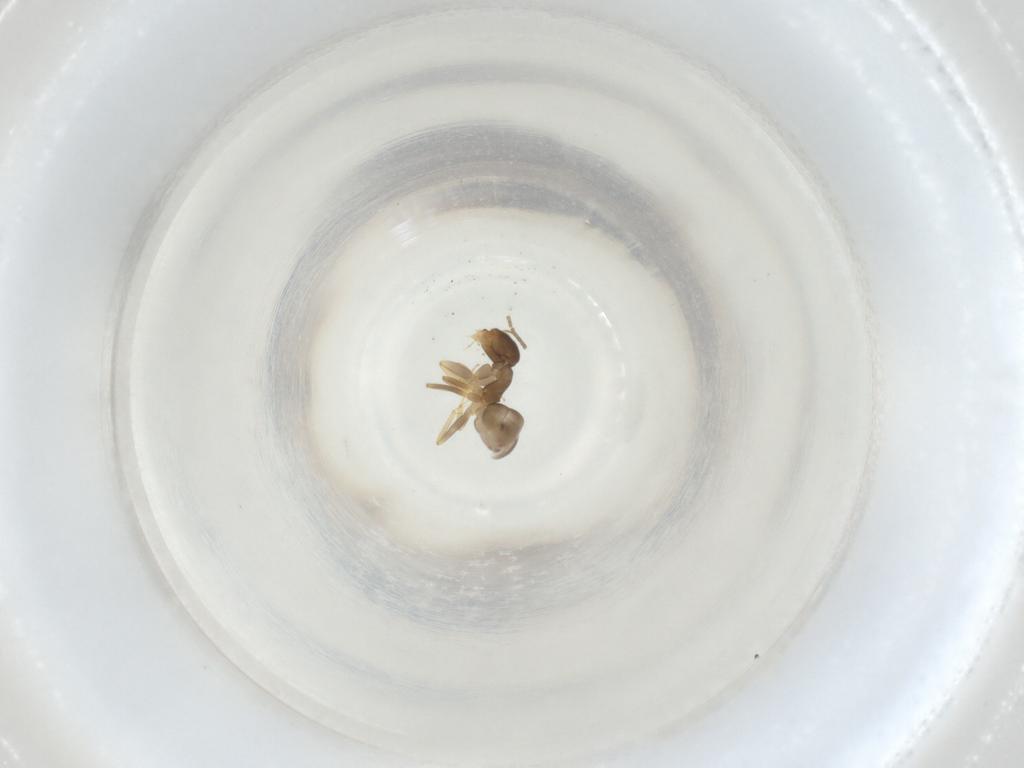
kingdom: Animalia
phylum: Arthropoda
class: Insecta
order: Hymenoptera
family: Formicidae
